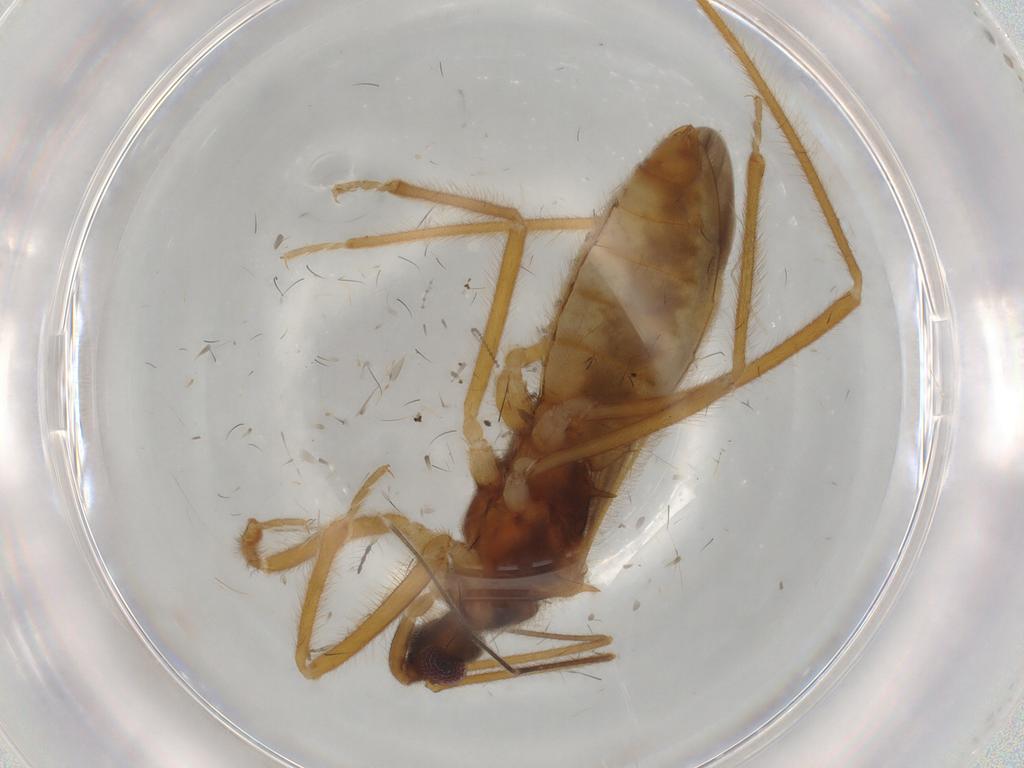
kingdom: Animalia
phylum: Arthropoda
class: Insecta
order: Hemiptera
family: Reduviidae
